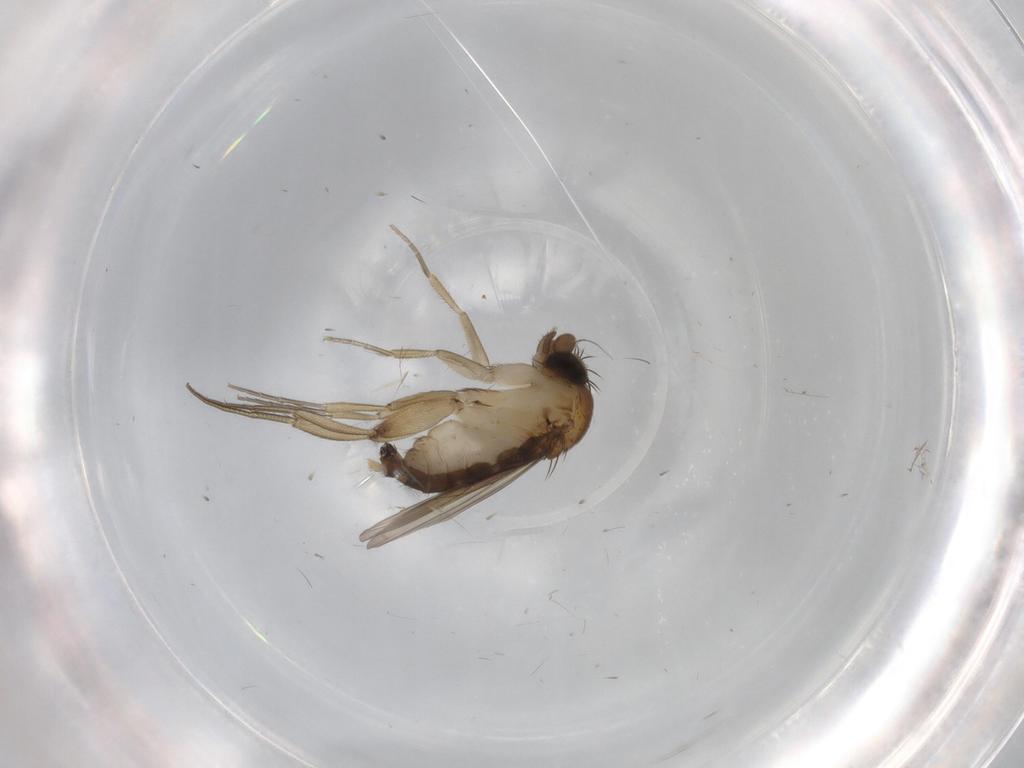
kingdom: Animalia
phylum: Arthropoda
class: Insecta
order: Diptera
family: Phoridae
